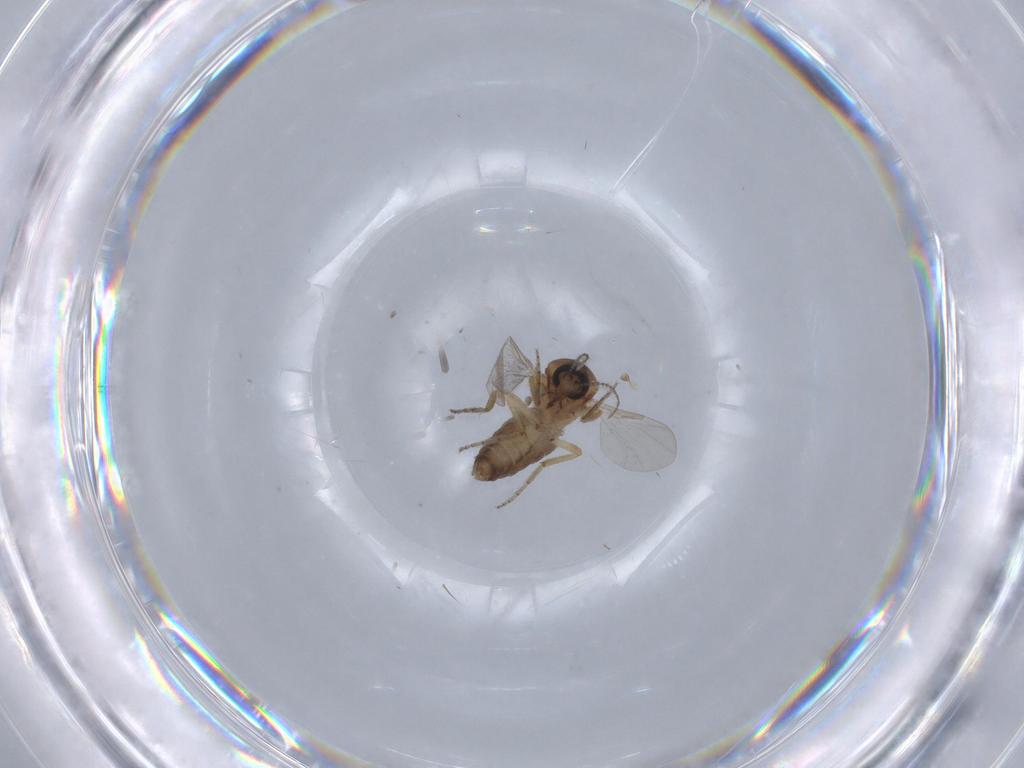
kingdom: Animalia
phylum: Arthropoda
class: Insecta
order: Diptera
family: Ceratopogonidae
